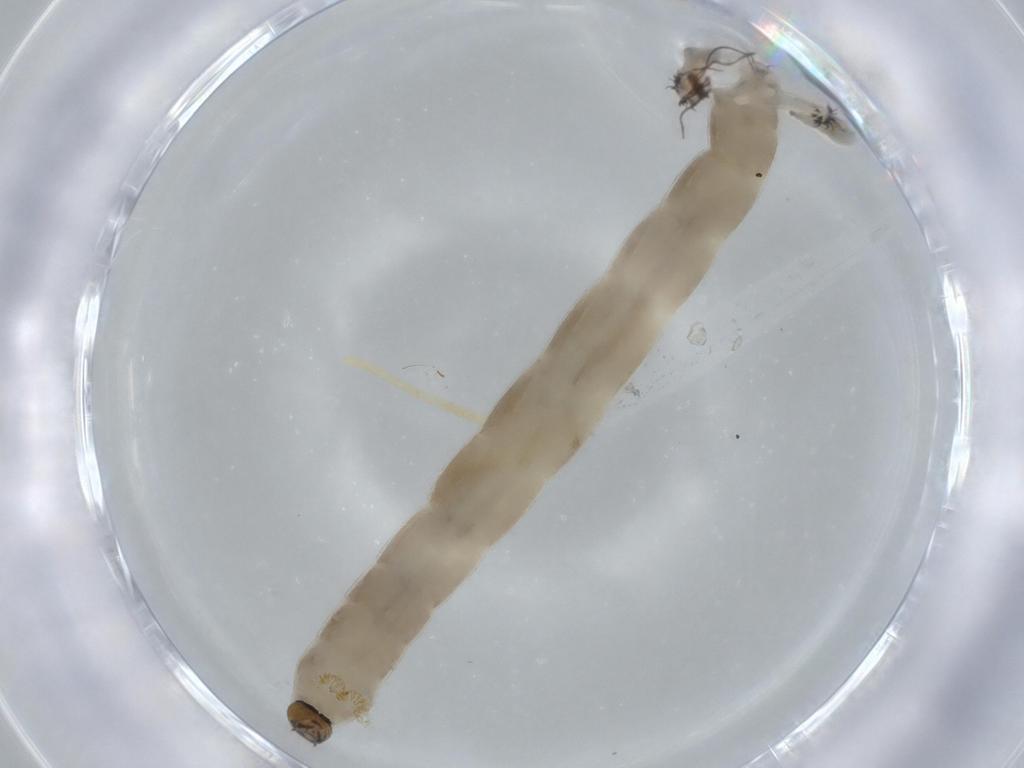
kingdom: Animalia
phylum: Arthropoda
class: Insecta
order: Diptera
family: Chironomidae
